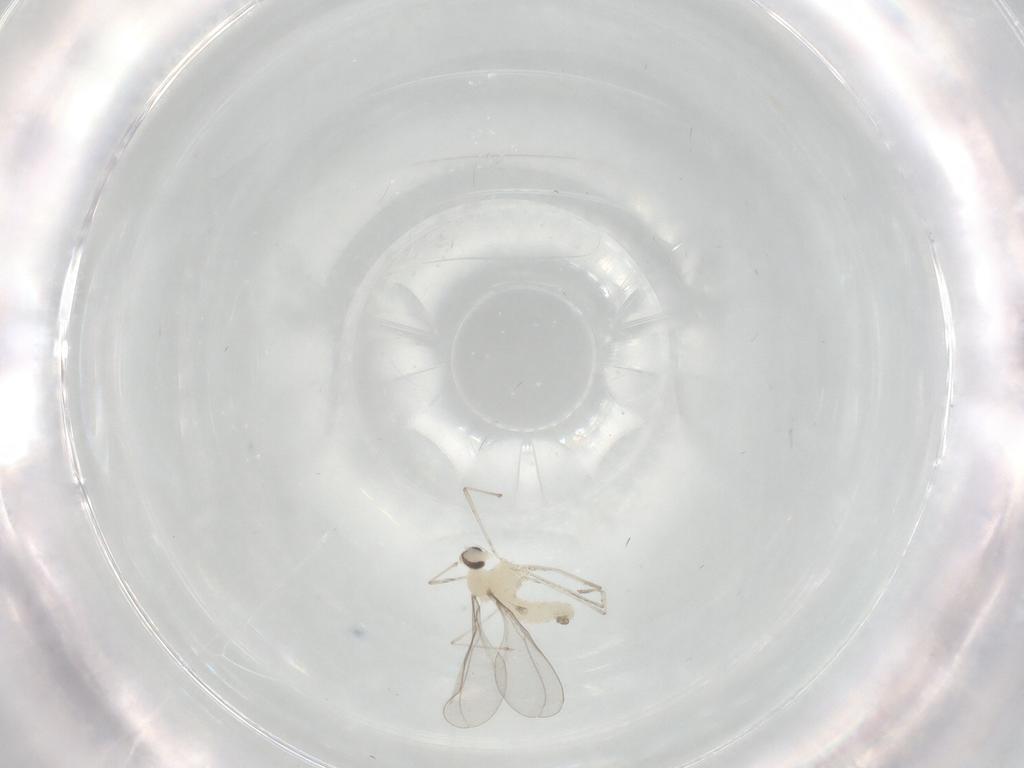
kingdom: Animalia
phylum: Arthropoda
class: Insecta
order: Diptera
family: Cecidomyiidae
